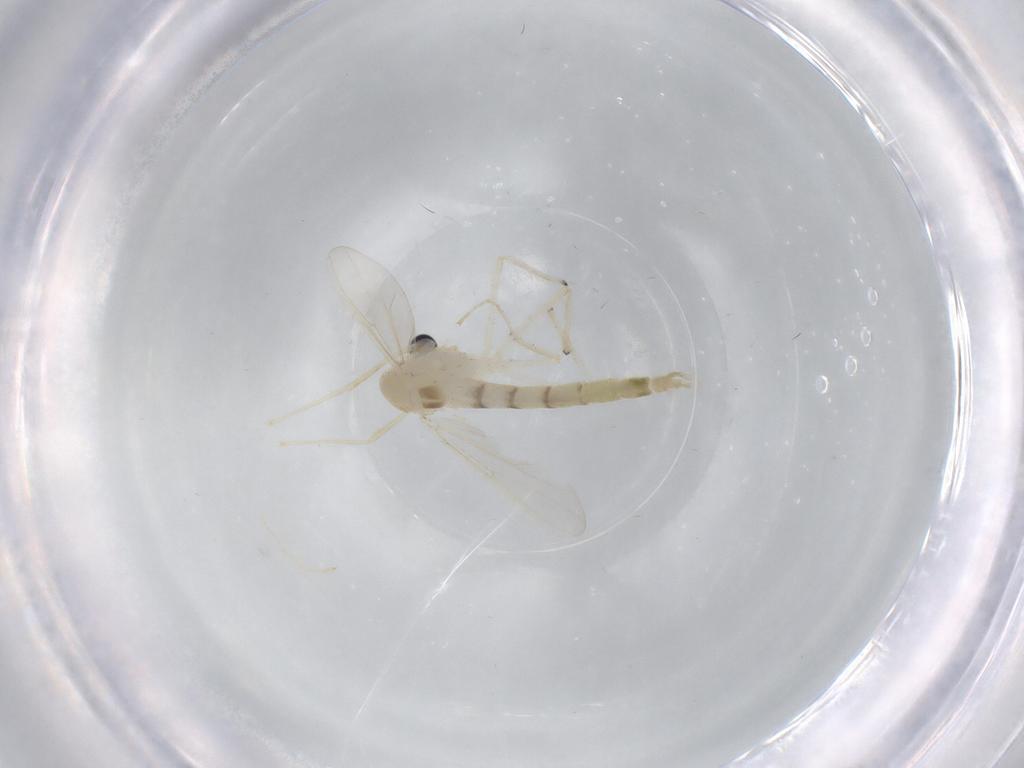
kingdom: Animalia
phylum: Arthropoda
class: Insecta
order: Diptera
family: Chironomidae
